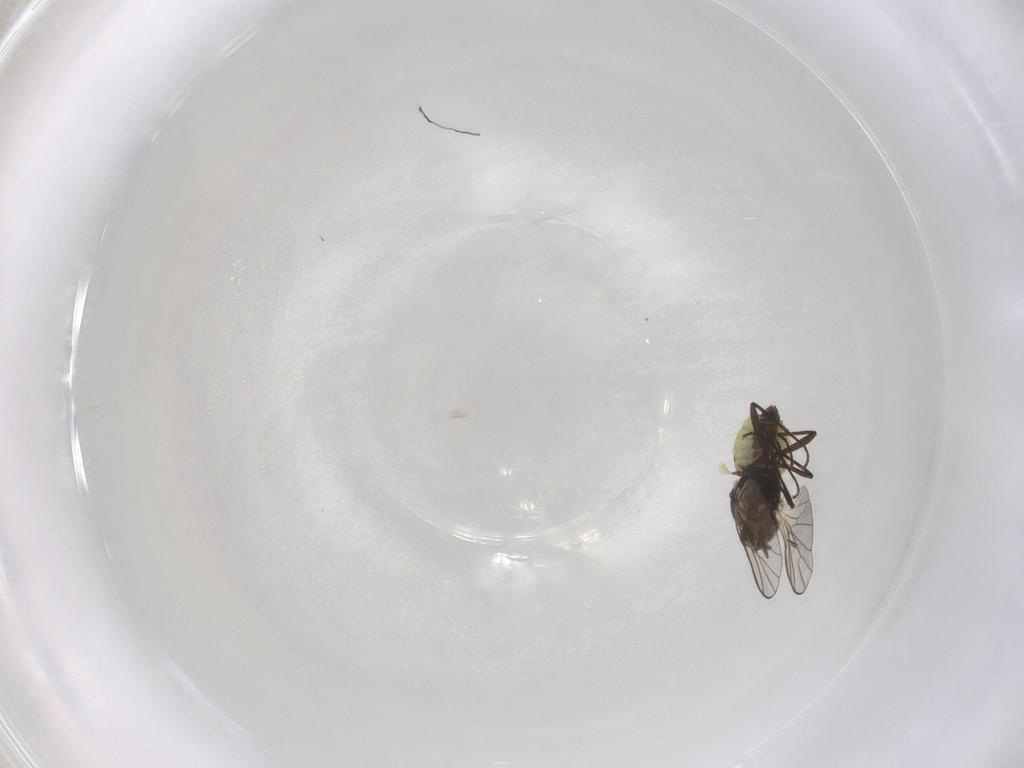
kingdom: Animalia
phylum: Arthropoda
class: Insecta
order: Diptera
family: Bombyliidae
